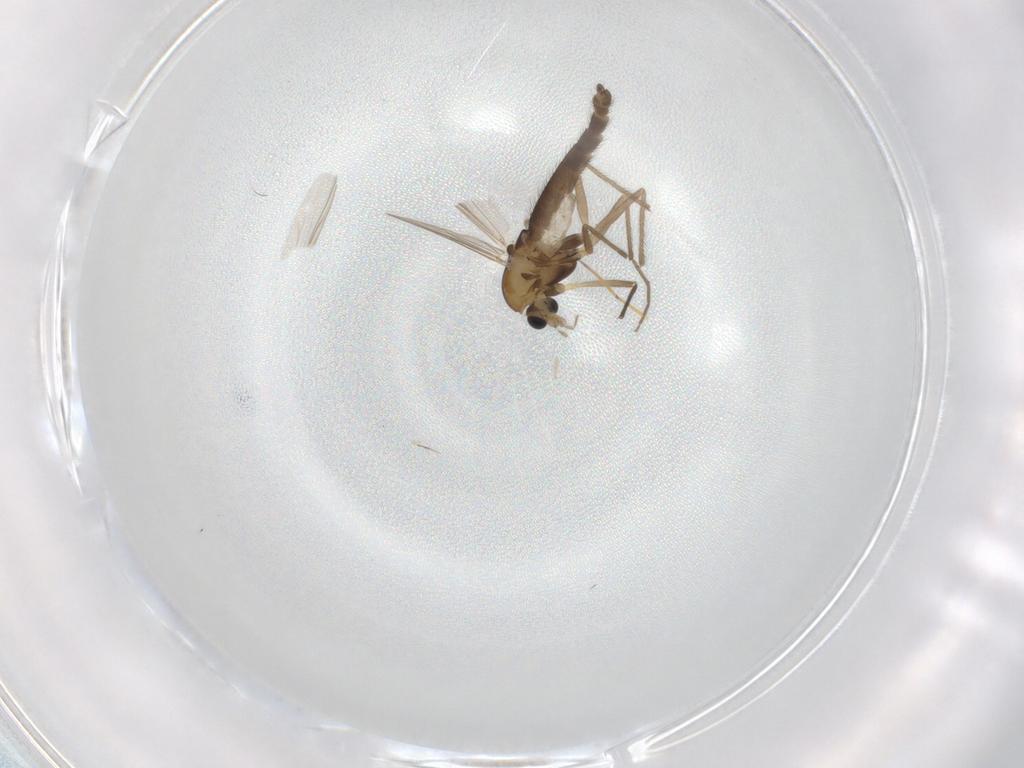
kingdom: Animalia
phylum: Arthropoda
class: Insecta
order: Diptera
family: Chironomidae
